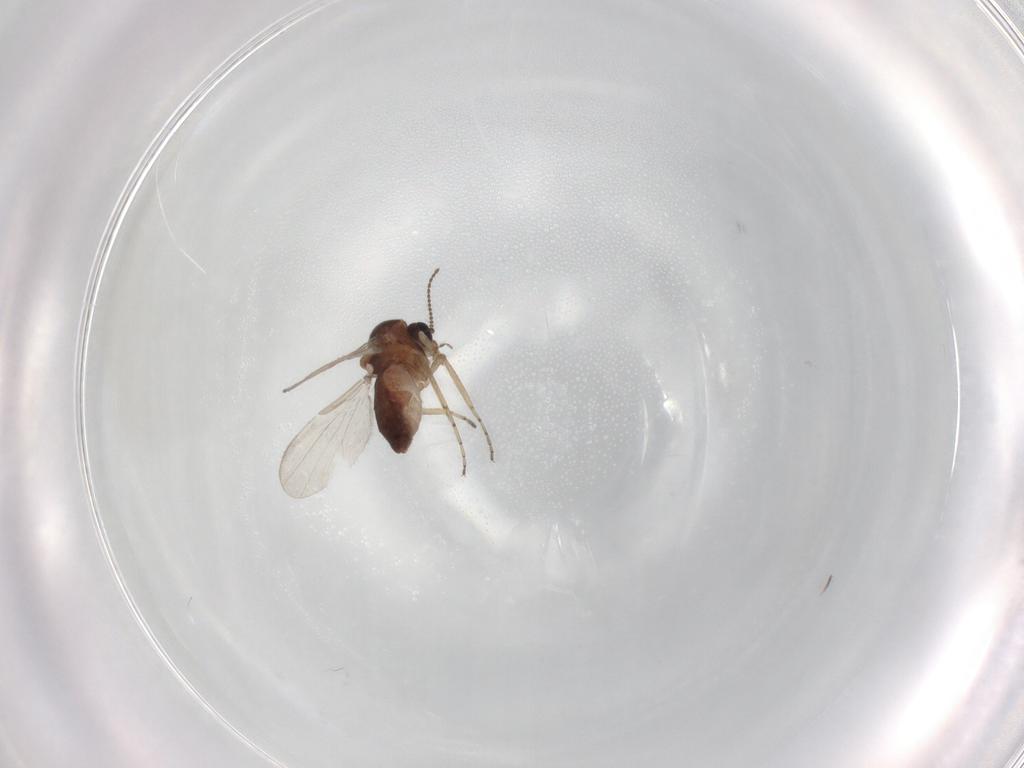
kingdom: Animalia
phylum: Arthropoda
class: Insecta
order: Diptera
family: Ceratopogonidae
